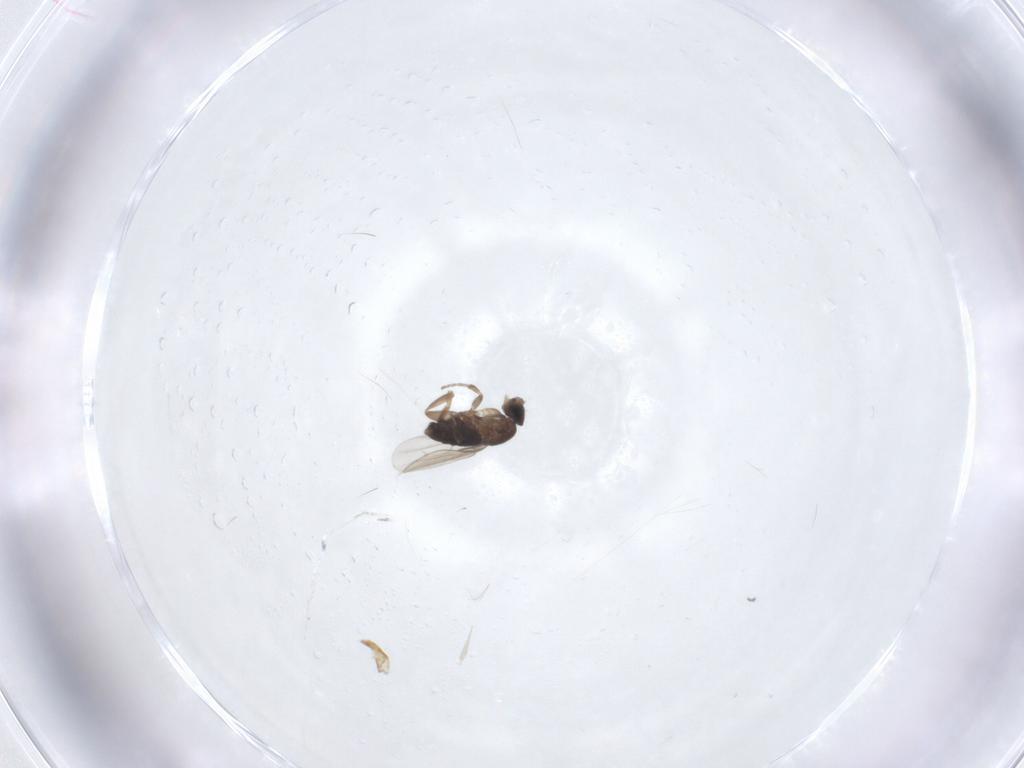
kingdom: Animalia
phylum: Arthropoda
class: Insecta
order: Diptera
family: Phoridae
